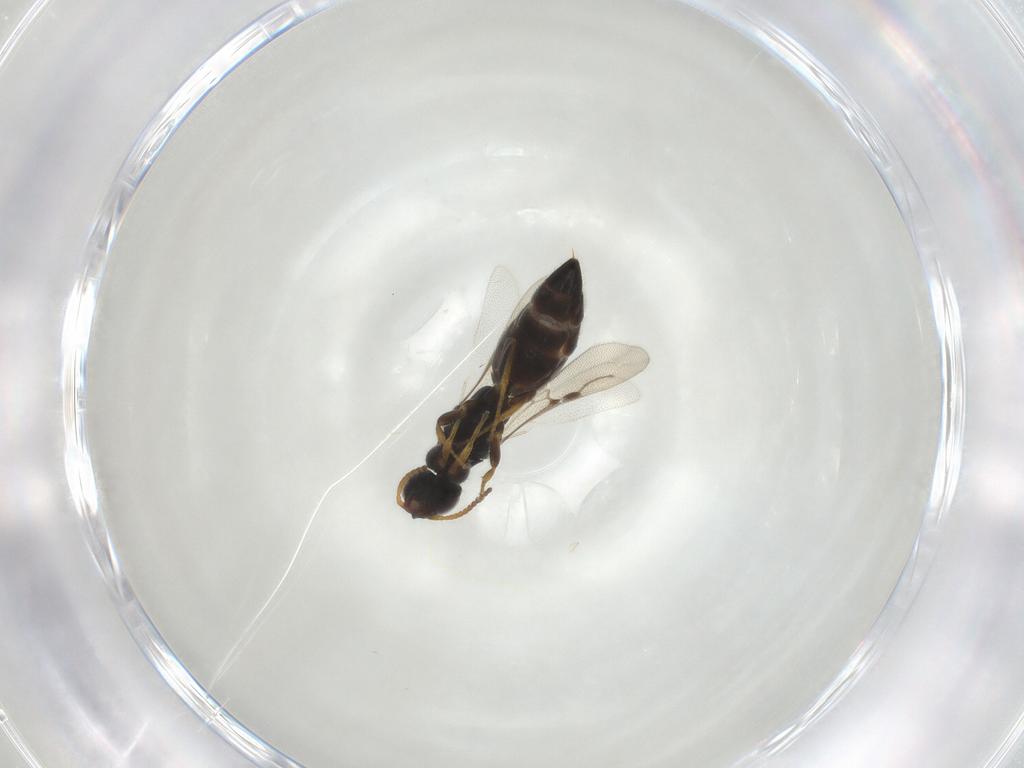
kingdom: Animalia
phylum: Arthropoda
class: Insecta
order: Hymenoptera
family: Bethylidae
